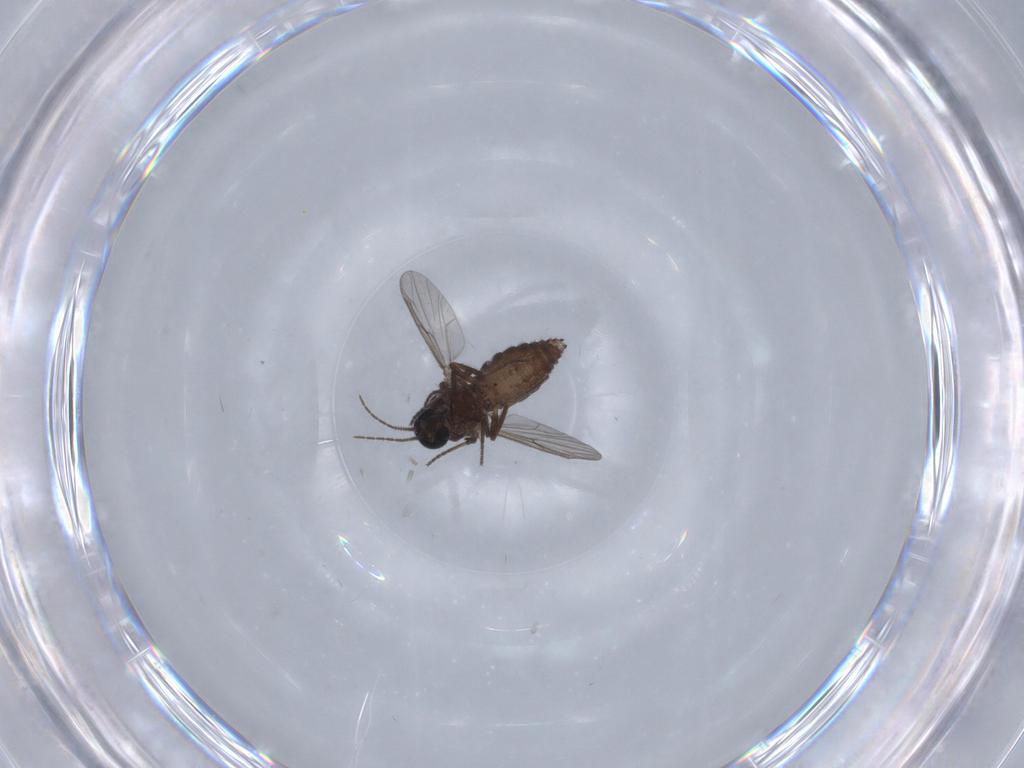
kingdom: Animalia
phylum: Arthropoda
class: Insecta
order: Diptera
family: Ceratopogonidae
